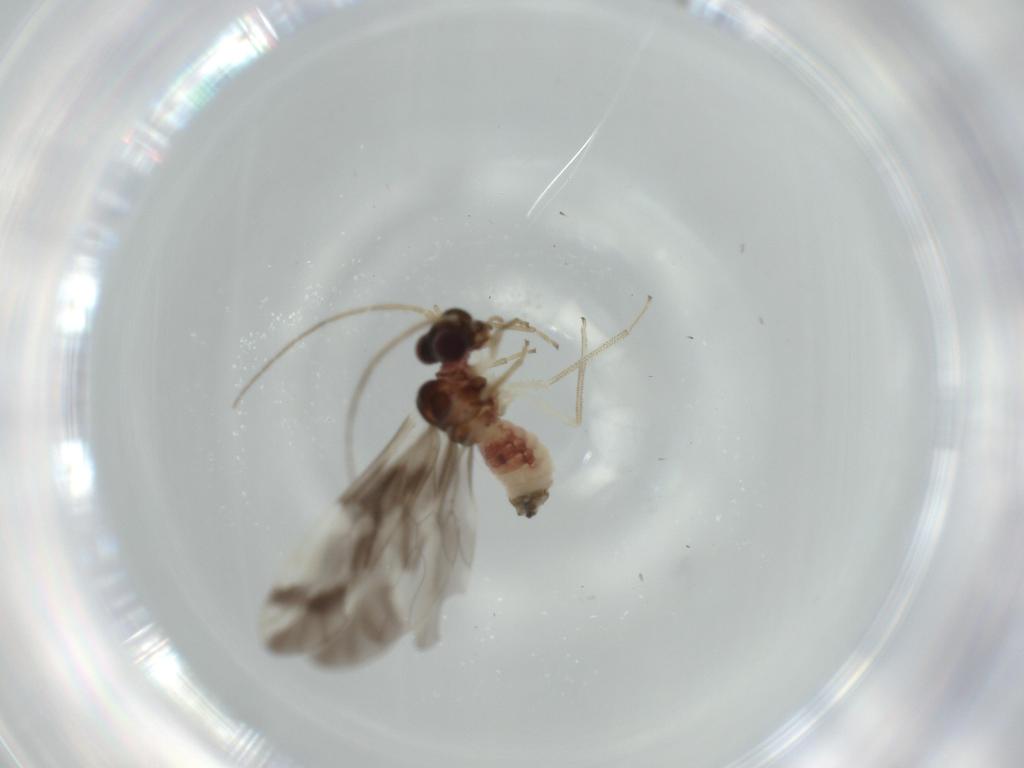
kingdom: Animalia
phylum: Arthropoda
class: Insecta
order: Psocodea
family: Caeciliusidae
